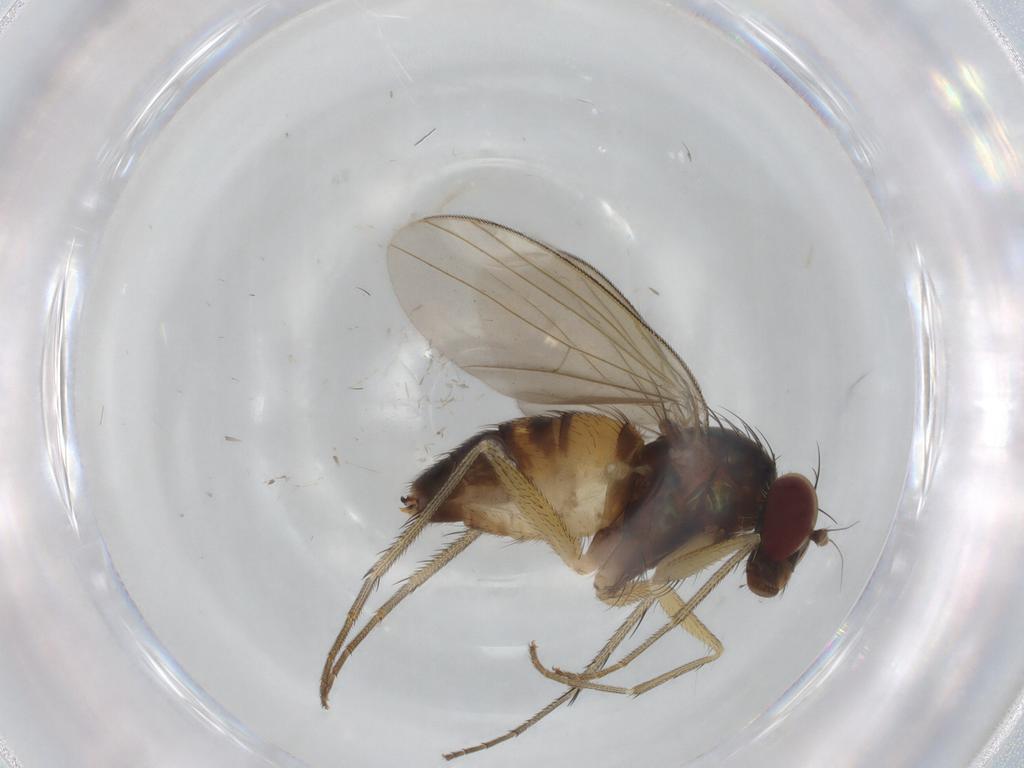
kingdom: Animalia
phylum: Arthropoda
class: Insecta
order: Diptera
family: Dolichopodidae
